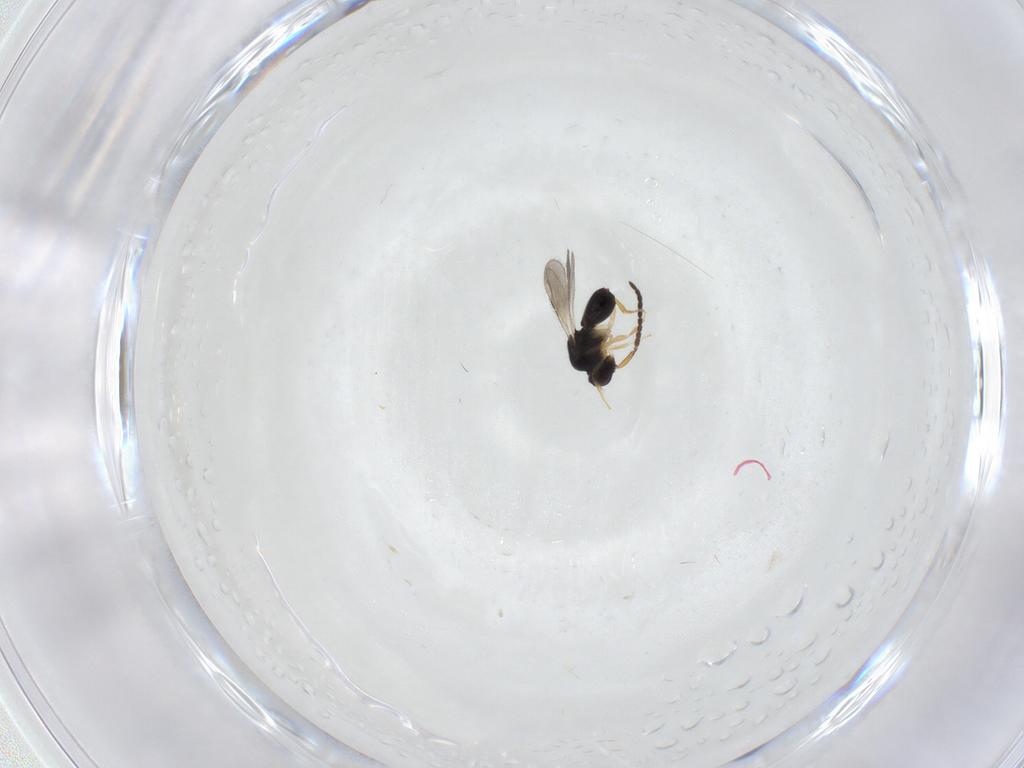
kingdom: Animalia
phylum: Arthropoda
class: Insecta
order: Hymenoptera
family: Ceraphronidae
